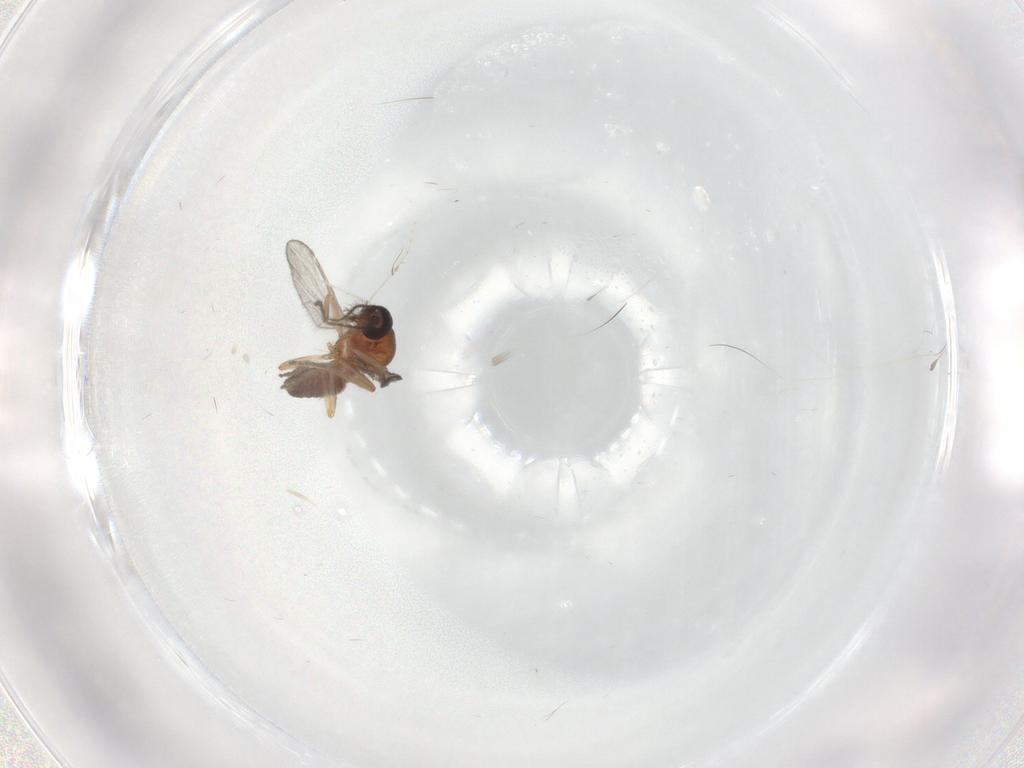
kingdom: Animalia
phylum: Arthropoda
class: Insecta
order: Diptera
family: Ceratopogonidae
